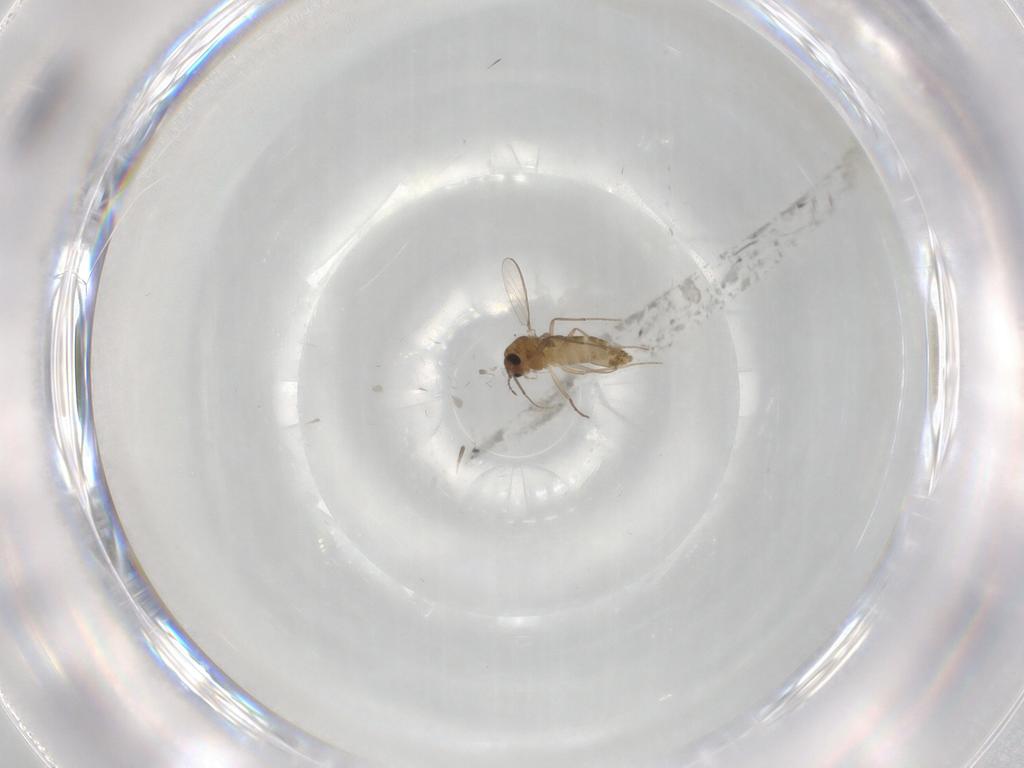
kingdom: Animalia
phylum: Arthropoda
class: Insecta
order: Diptera
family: Chironomidae
